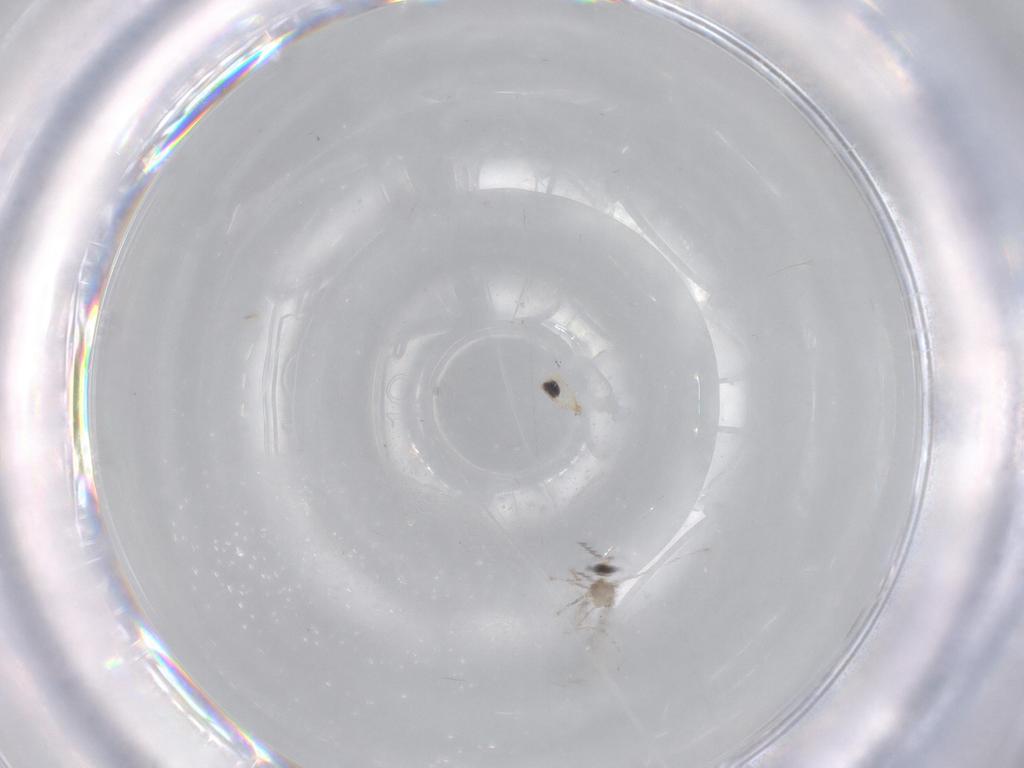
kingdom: Animalia
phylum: Arthropoda
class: Insecta
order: Diptera
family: Cecidomyiidae
